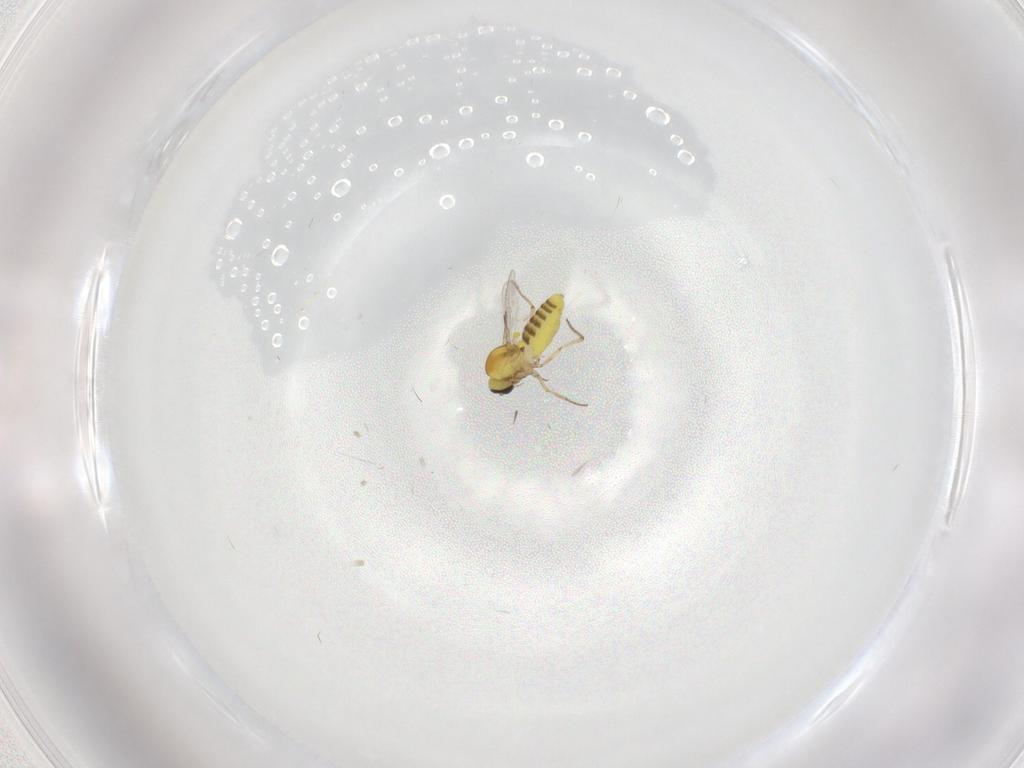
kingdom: Animalia
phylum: Arthropoda
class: Insecta
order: Diptera
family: Ceratopogonidae
